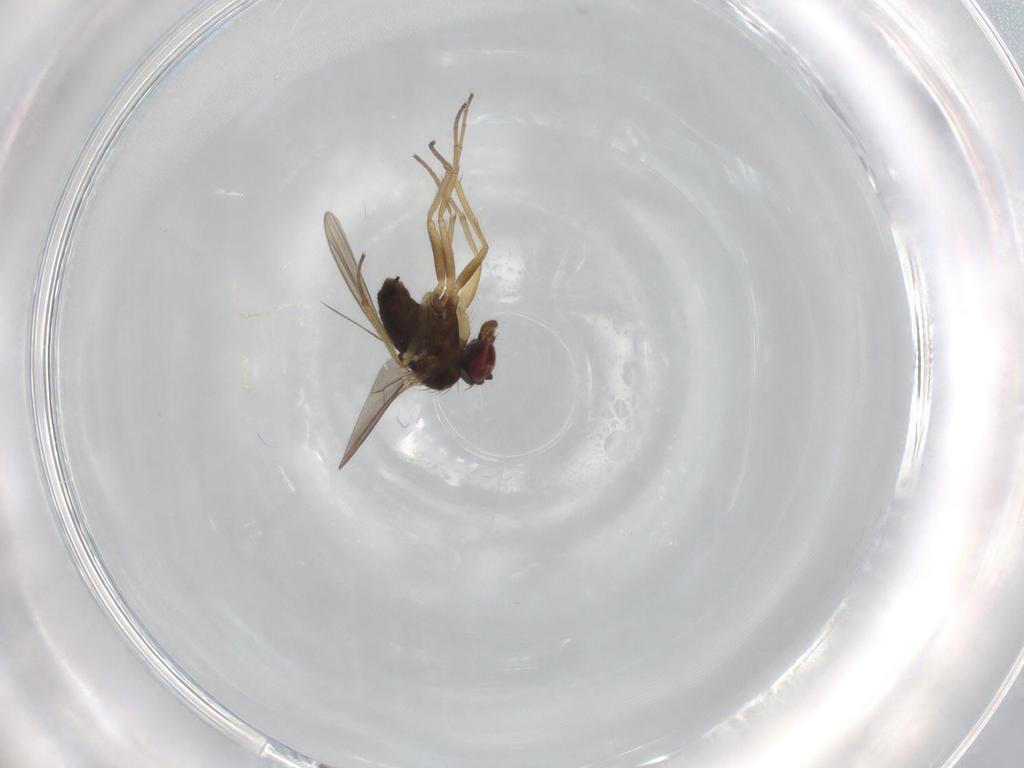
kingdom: Animalia
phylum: Arthropoda
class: Insecta
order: Diptera
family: Dolichopodidae
